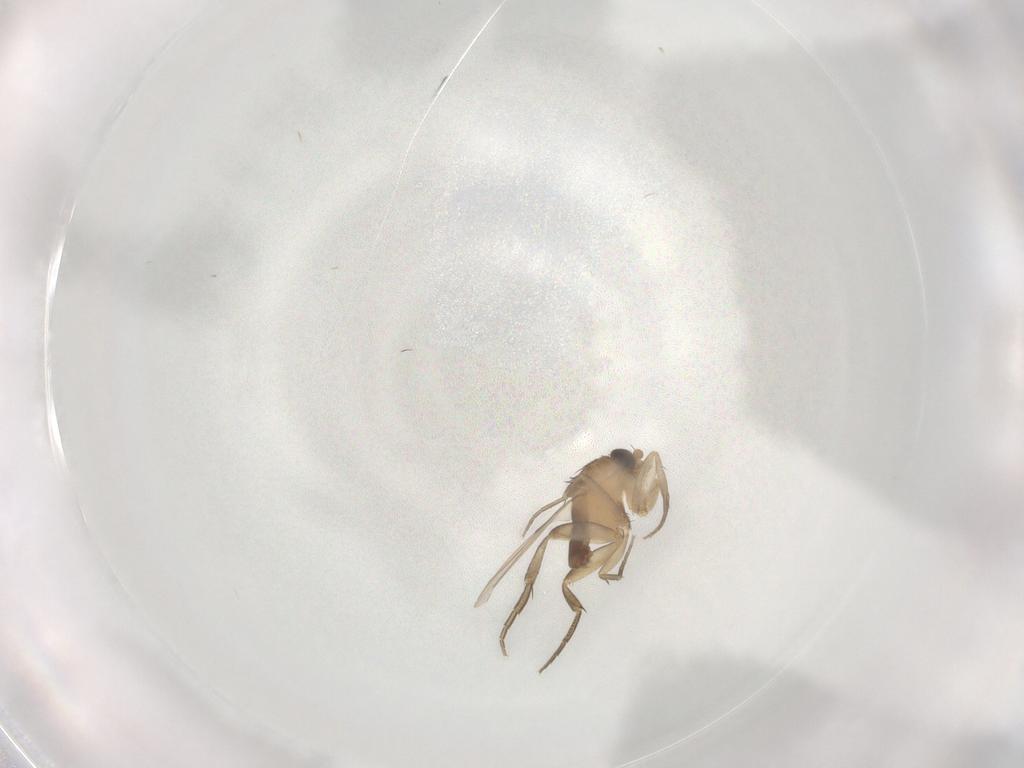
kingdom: Animalia
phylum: Arthropoda
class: Insecta
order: Diptera
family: Phoridae
